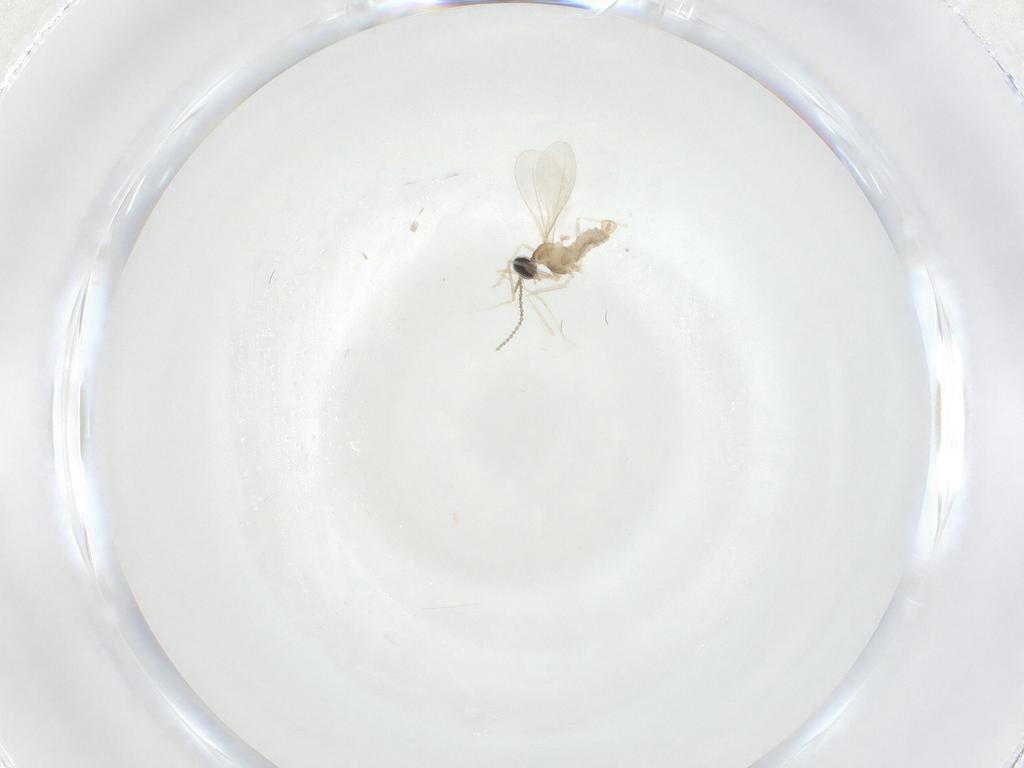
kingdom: Animalia
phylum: Arthropoda
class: Insecta
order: Diptera
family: Cecidomyiidae
